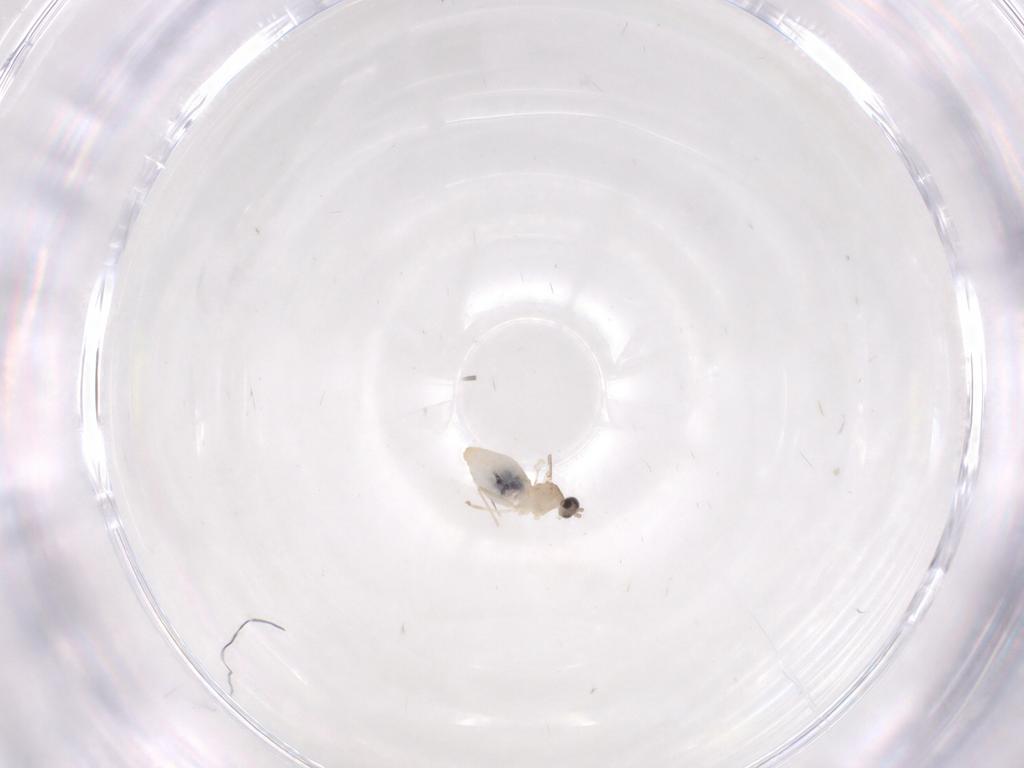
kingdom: Animalia
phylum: Arthropoda
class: Insecta
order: Diptera
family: Cecidomyiidae
